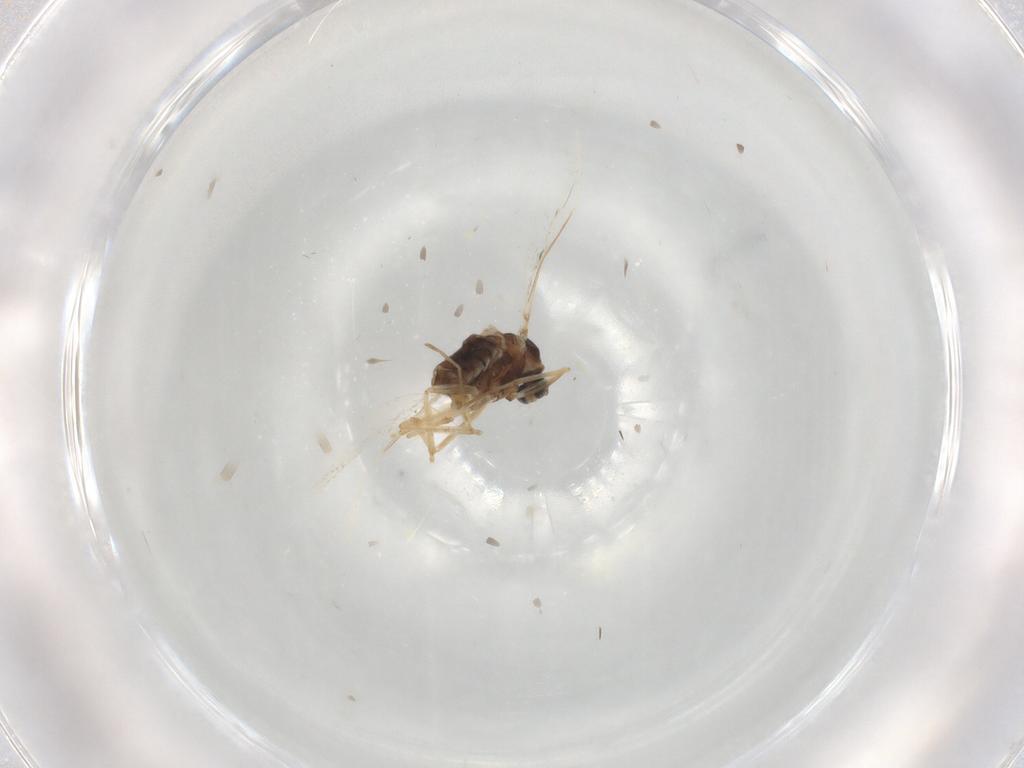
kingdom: Animalia
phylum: Arthropoda
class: Insecta
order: Diptera
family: Cecidomyiidae
